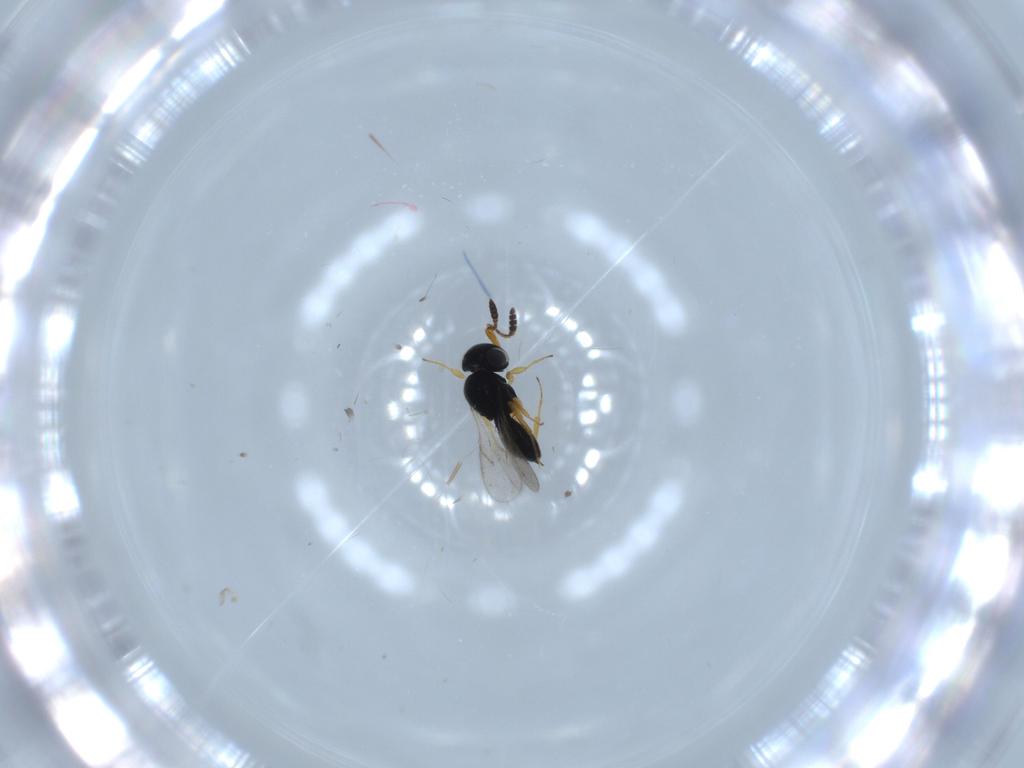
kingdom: Animalia
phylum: Arthropoda
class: Insecta
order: Hymenoptera
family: Scelionidae
